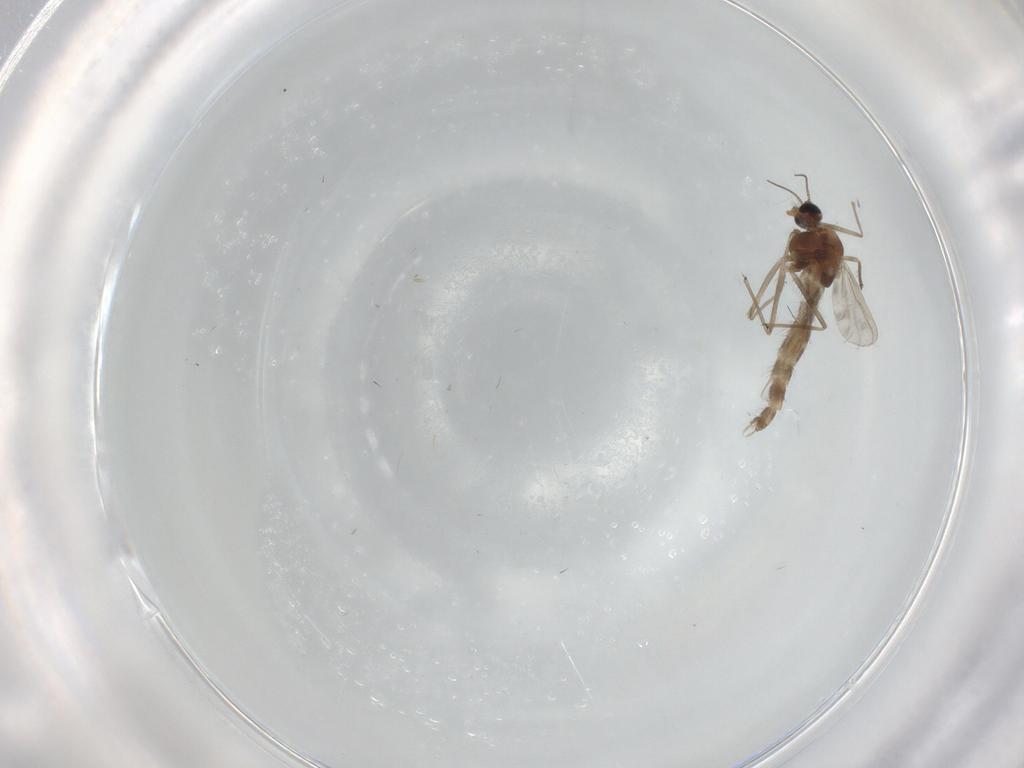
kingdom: Animalia
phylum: Arthropoda
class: Insecta
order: Diptera
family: Chironomidae
